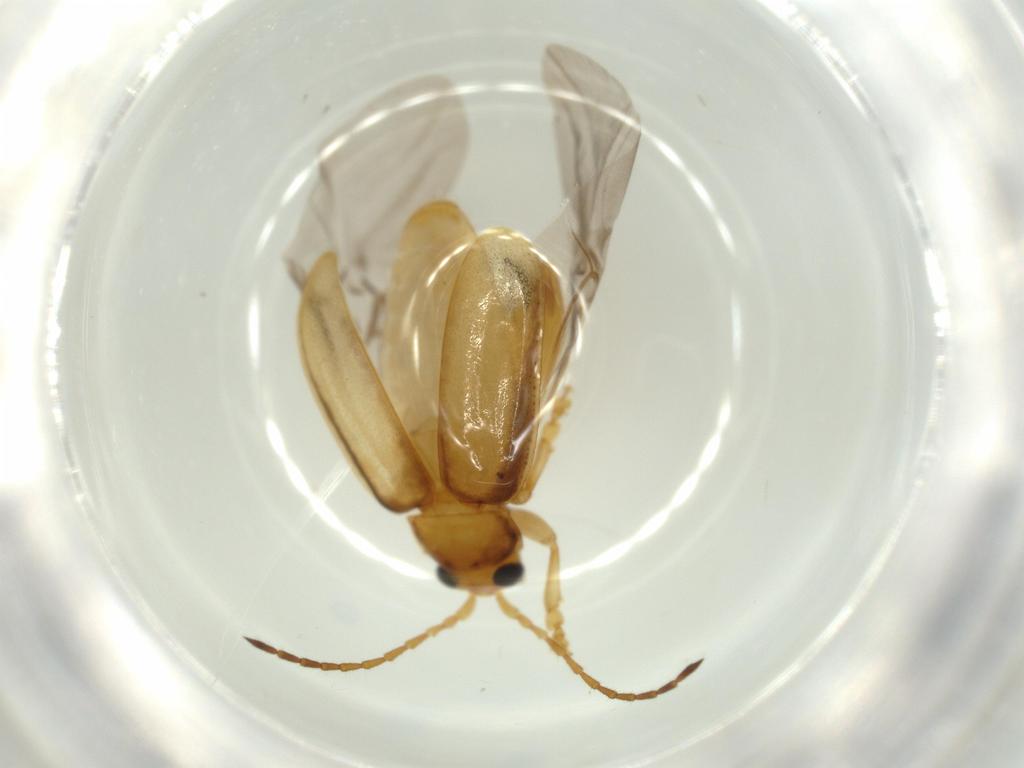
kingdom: Animalia
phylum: Arthropoda
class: Insecta
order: Coleoptera
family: Chrysomelidae
